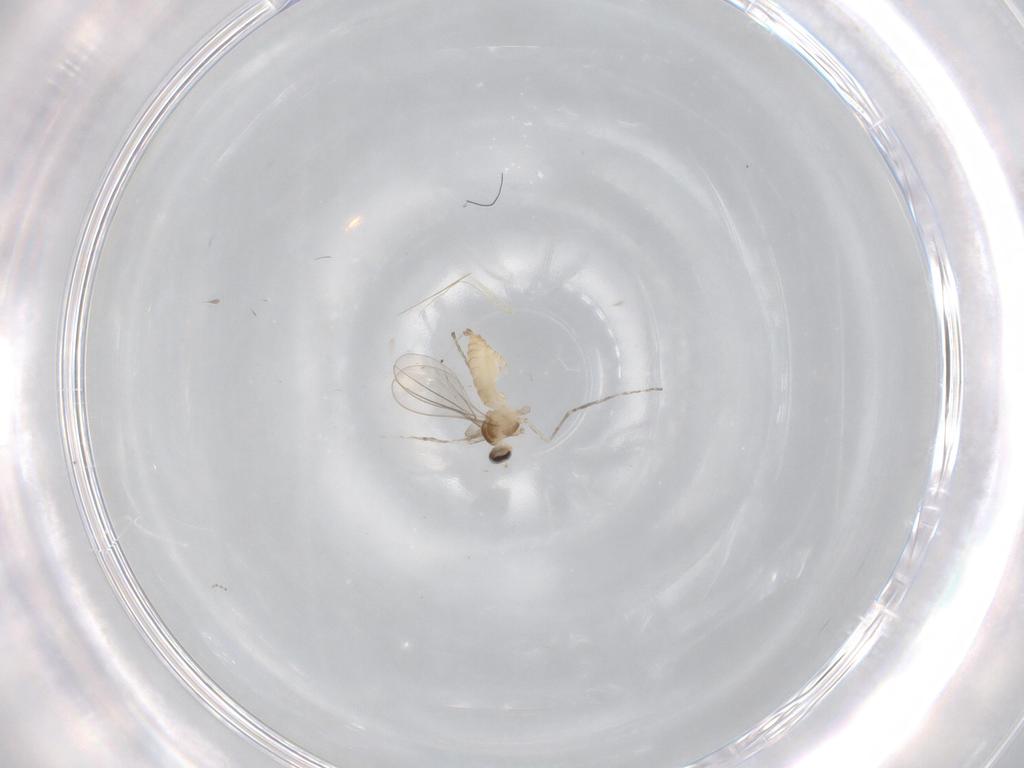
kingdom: Animalia
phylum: Arthropoda
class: Insecta
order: Diptera
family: Cecidomyiidae
